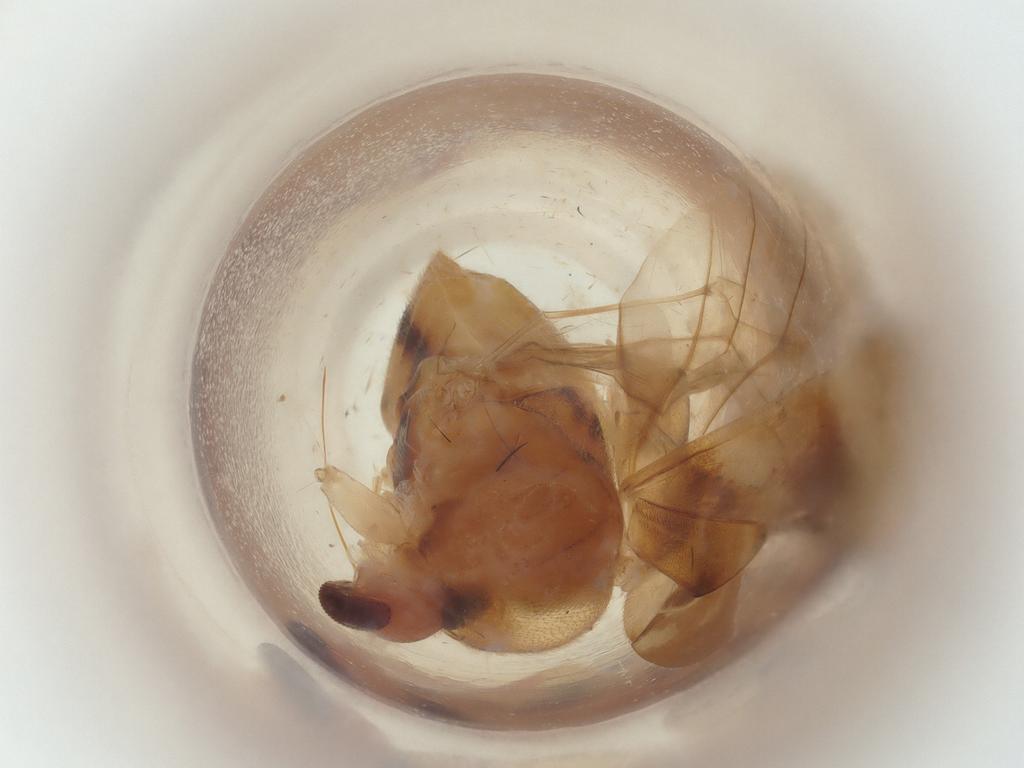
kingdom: Animalia
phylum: Arthropoda
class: Insecta
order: Hemiptera
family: Miridae
